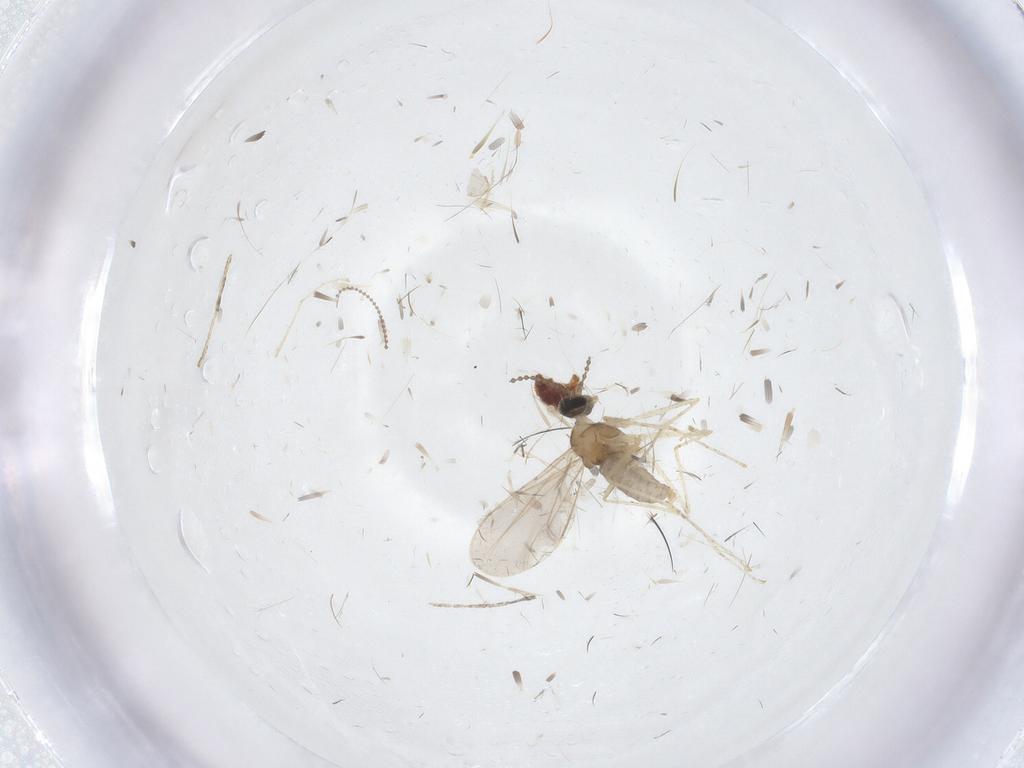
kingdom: Animalia
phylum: Arthropoda
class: Insecta
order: Diptera
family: Cecidomyiidae
